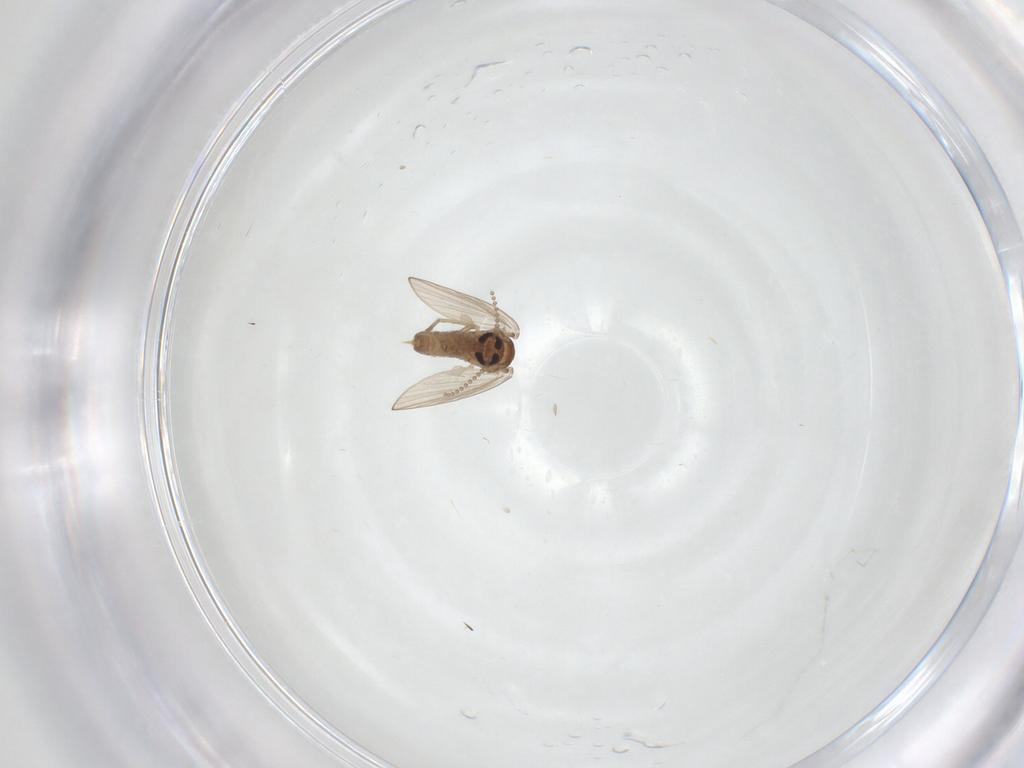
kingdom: Animalia
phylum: Arthropoda
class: Insecta
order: Diptera
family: Psychodidae
